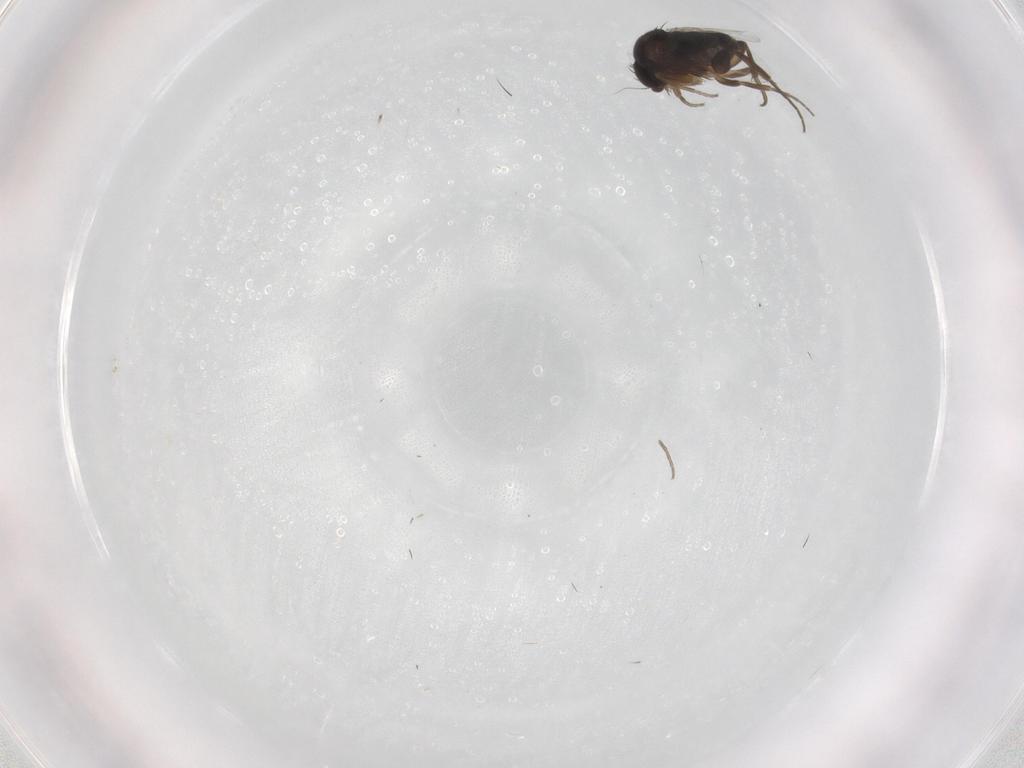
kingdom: Animalia
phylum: Arthropoda
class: Insecta
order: Diptera
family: Phoridae
